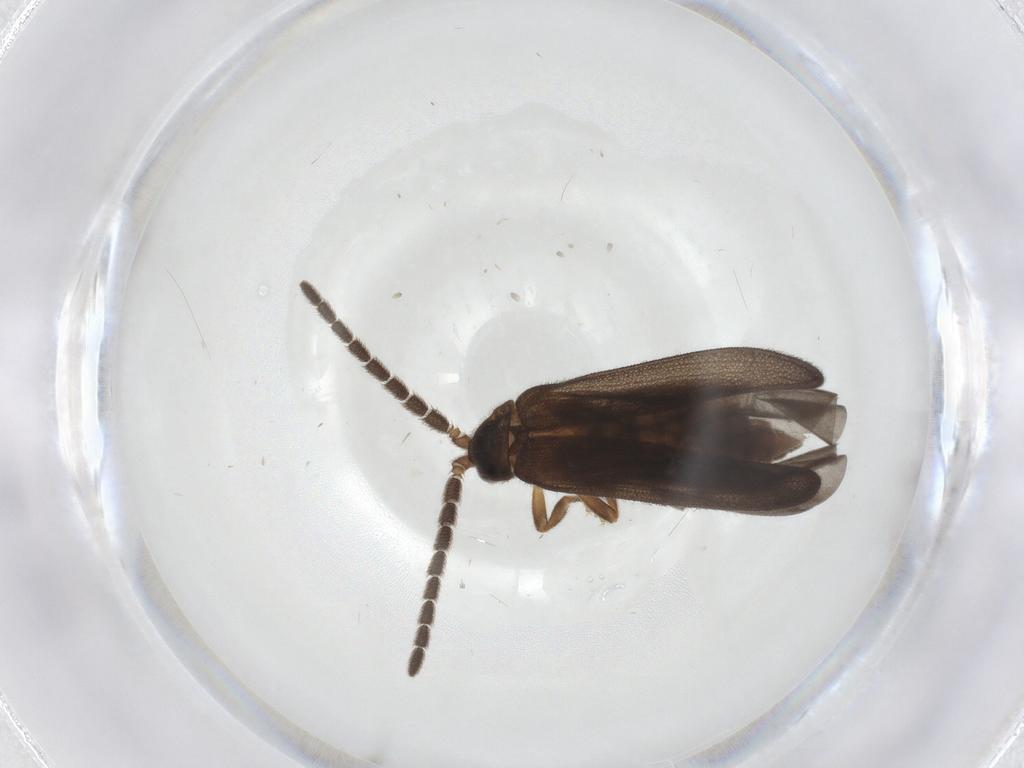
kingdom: Animalia
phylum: Arthropoda
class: Insecta
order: Coleoptera
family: Lycidae
